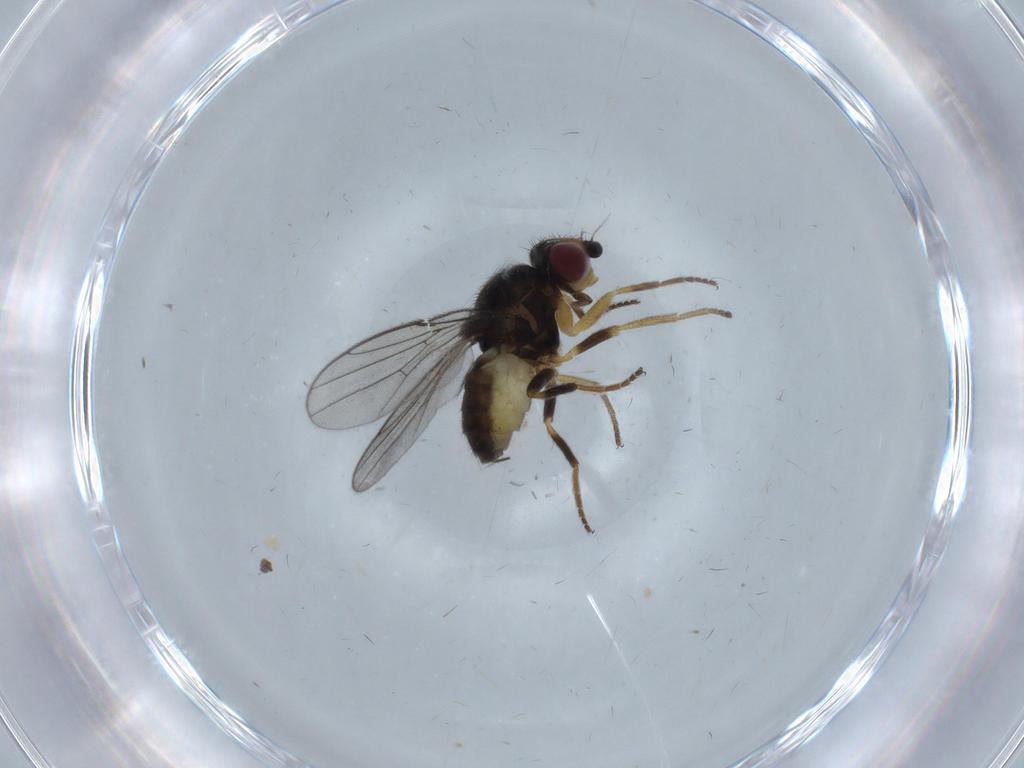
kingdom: Animalia
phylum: Arthropoda
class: Insecta
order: Diptera
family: Chloropidae
